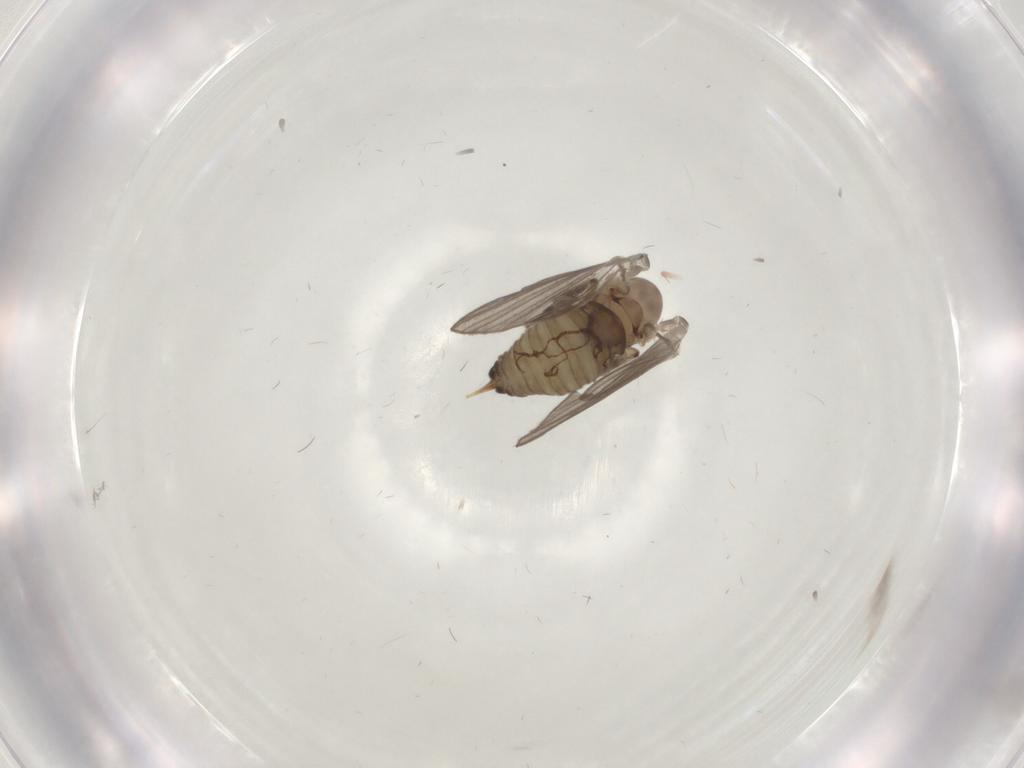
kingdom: Animalia
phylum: Arthropoda
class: Insecta
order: Diptera
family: Psychodidae
